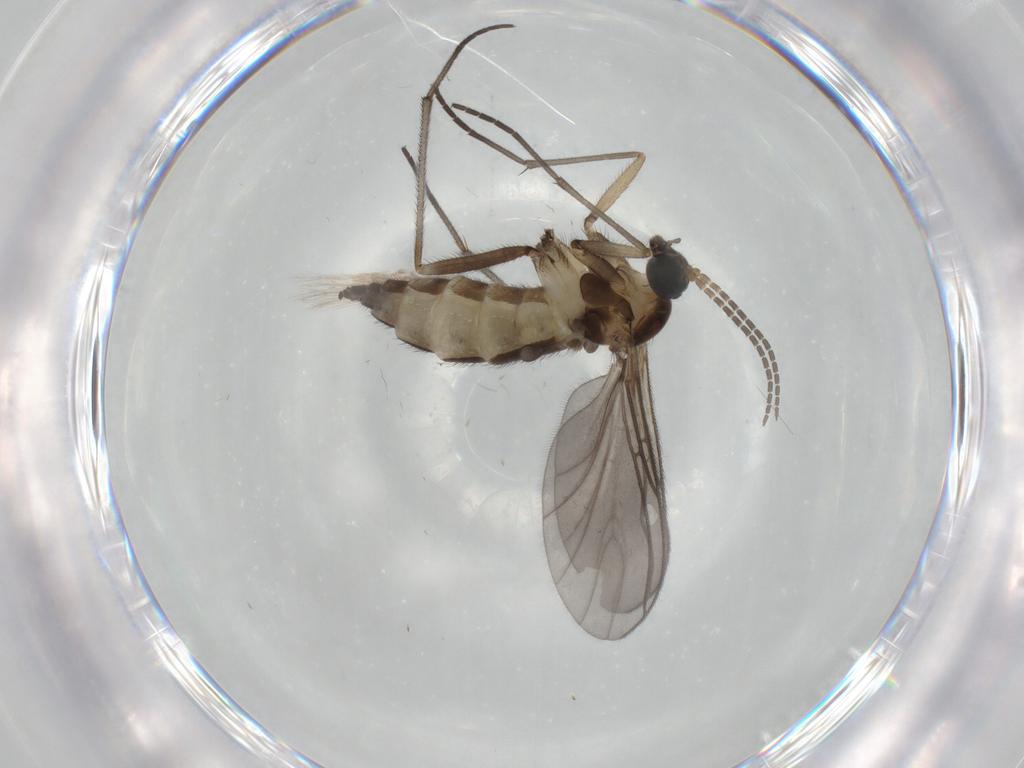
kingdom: Animalia
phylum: Arthropoda
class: Insecta
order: Diptera
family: Sciaridae
